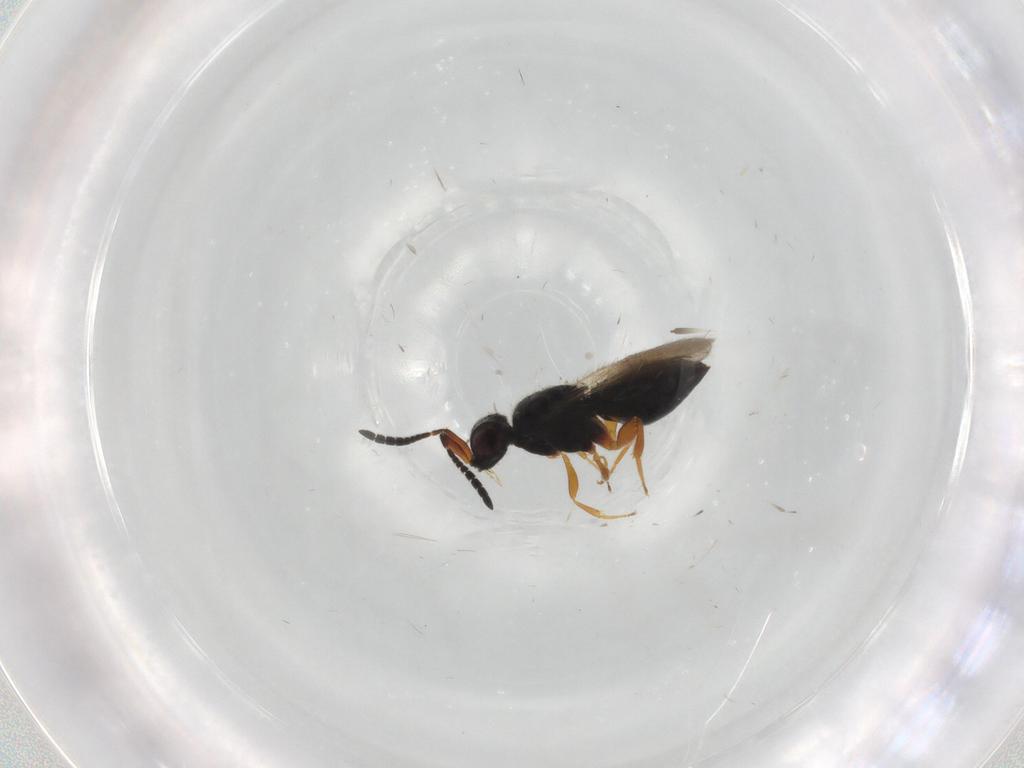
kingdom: Animalia
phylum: Arthropoda
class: Insecta
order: Hymenoptera
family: Ceraphronidae
